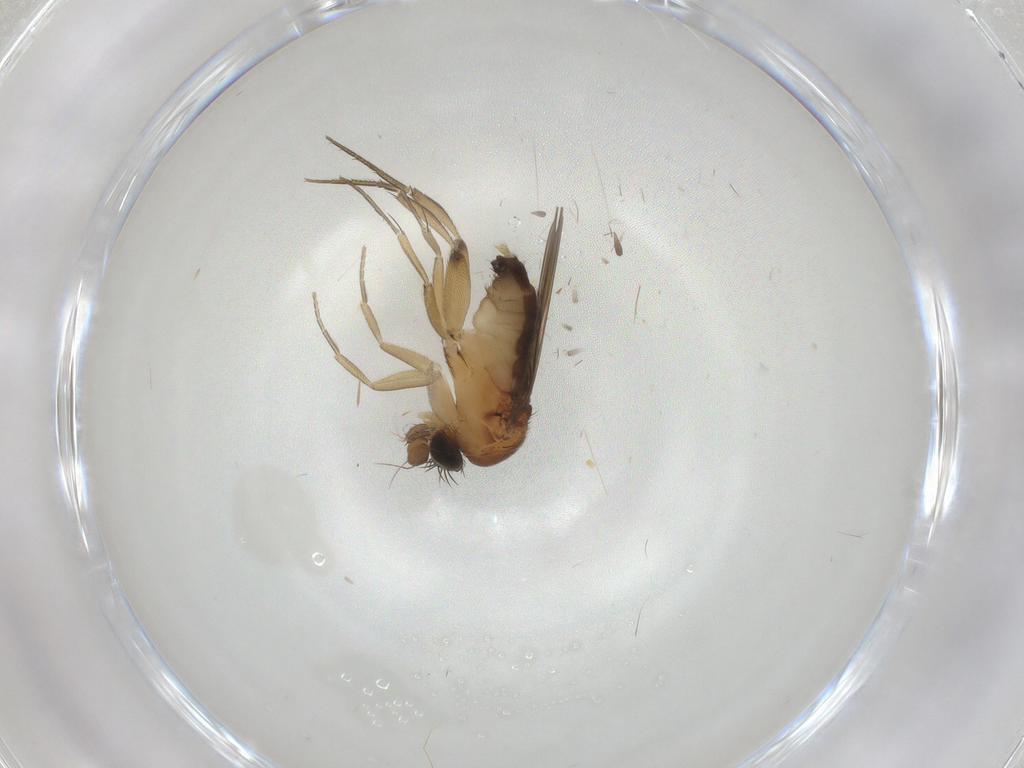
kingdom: Animalia
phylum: Arthropoda
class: Insecta
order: Diptera
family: Phoridae
